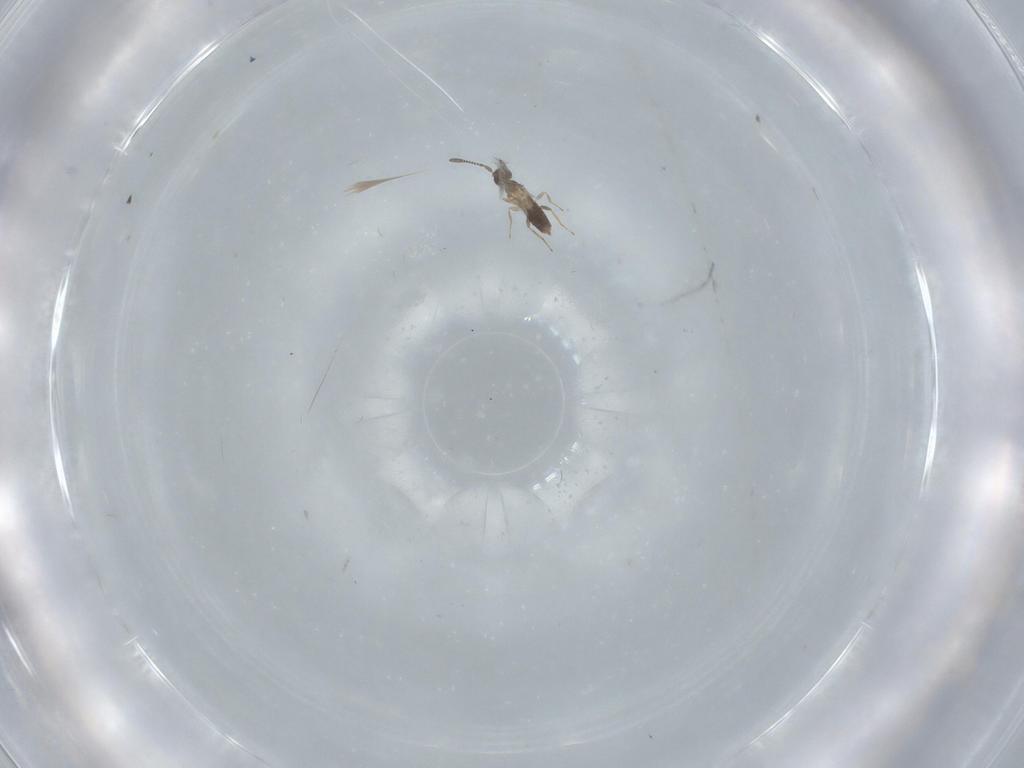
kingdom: Animalia
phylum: Arthropoda
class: Insecta
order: Hymenoptera
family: Mymaridae
